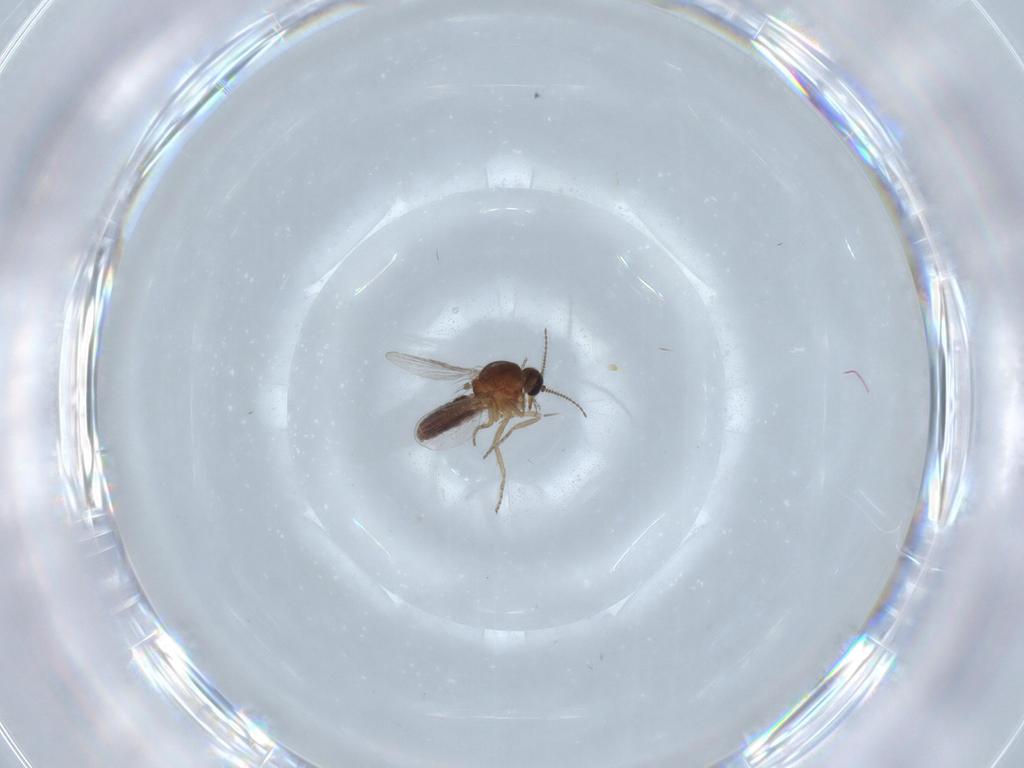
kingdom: Animalia
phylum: Arthropoda
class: Insecta
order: Diptera
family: Ceratopogonidae
